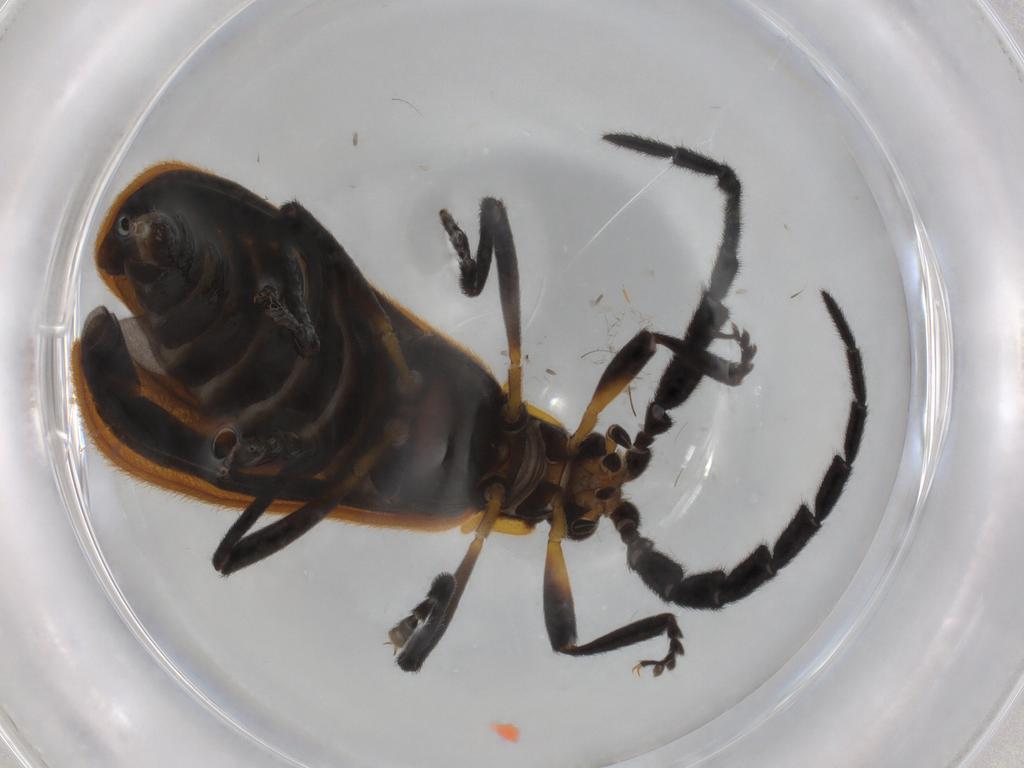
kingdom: Animalia
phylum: Arthropoda
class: Insecta
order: Coleoptera
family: Lycidae
